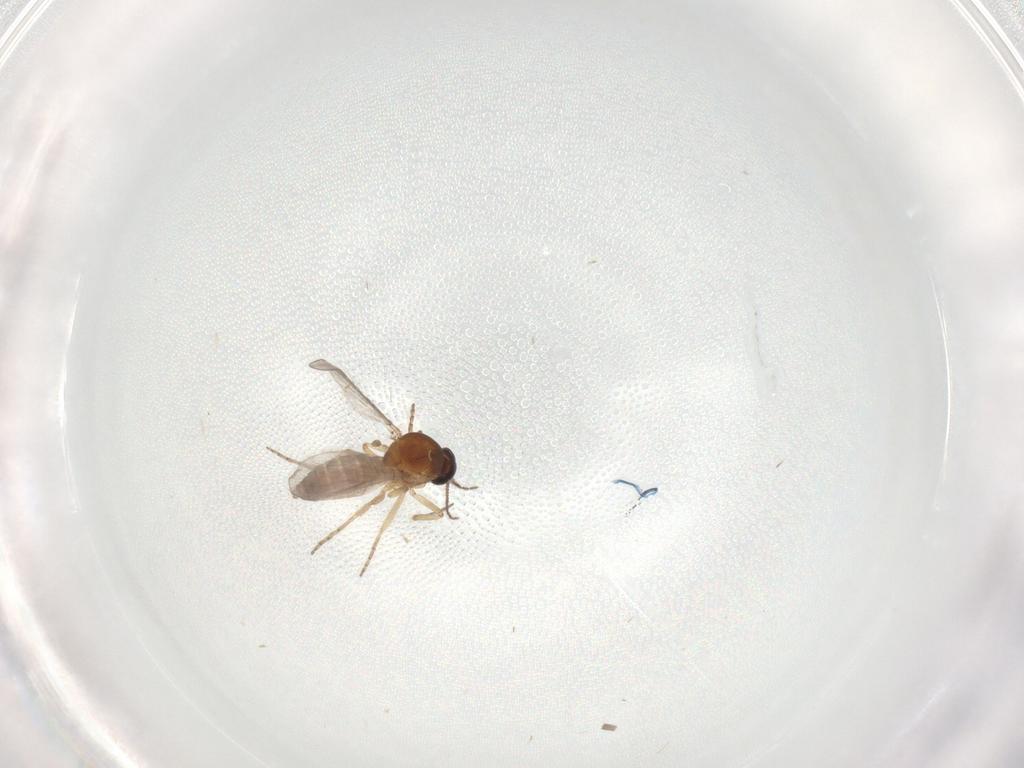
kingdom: Animalia
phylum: Arthropoda
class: Insecta
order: Diptera
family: Ceratopogonidae
